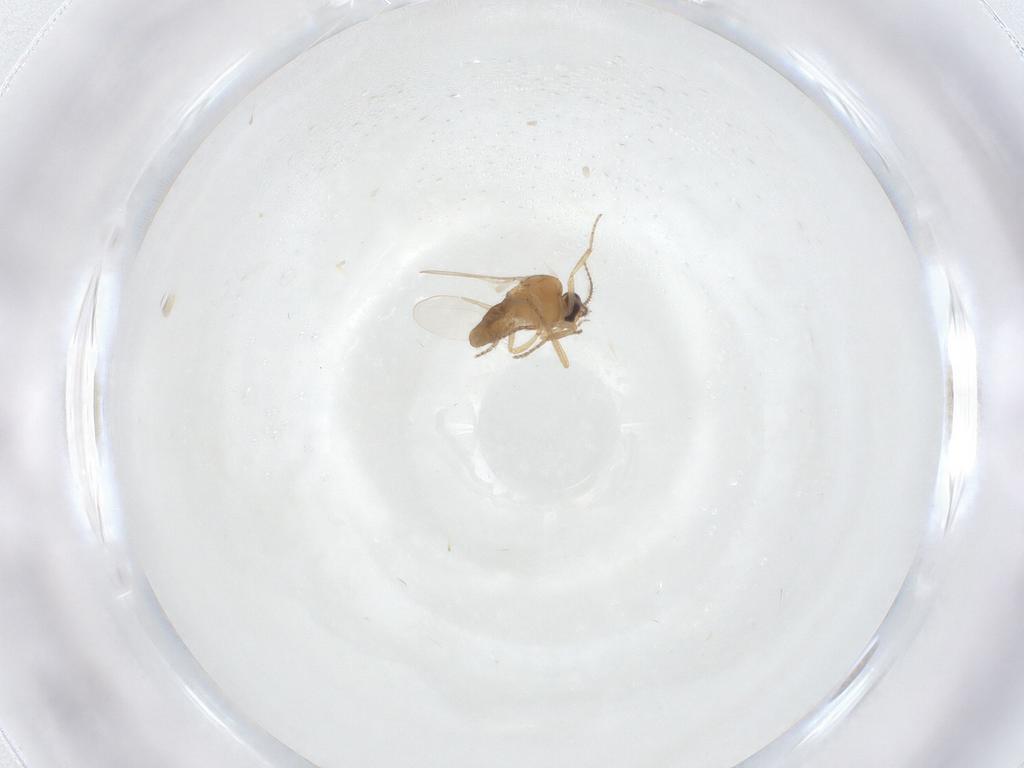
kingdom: Animalia
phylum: Arthropoda
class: Insecta
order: Diptera
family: Ceratopogonidae
